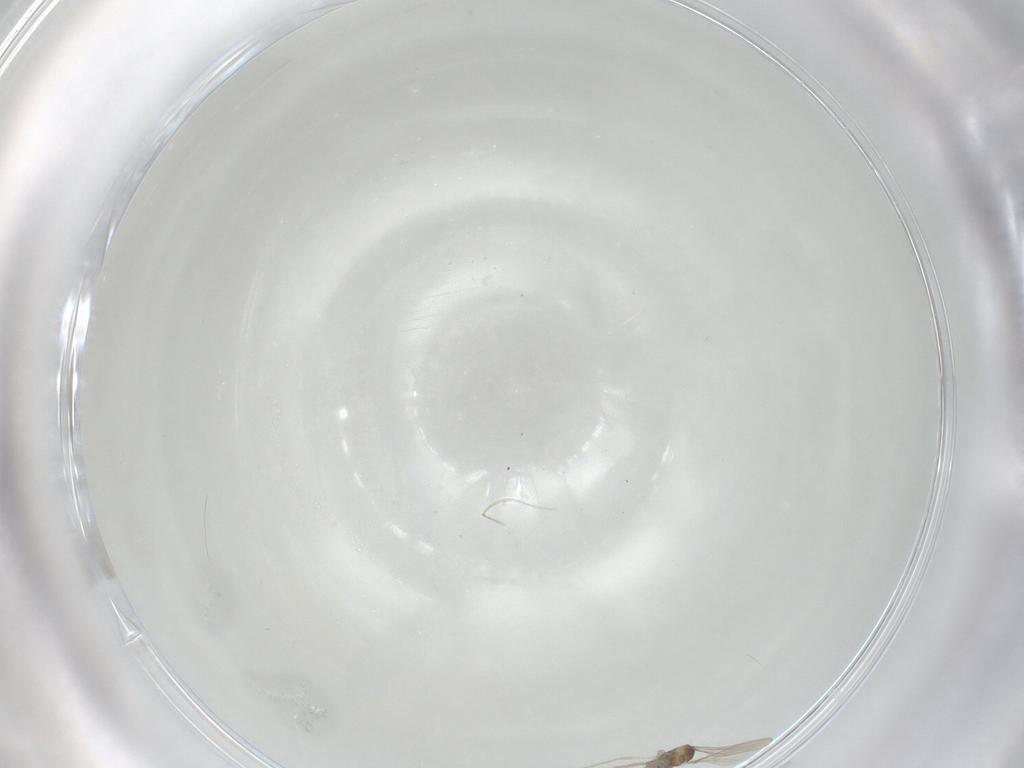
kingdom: Animalia
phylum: Arthropoda
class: Insecta
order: Diptera
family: Cecidomyiidae
